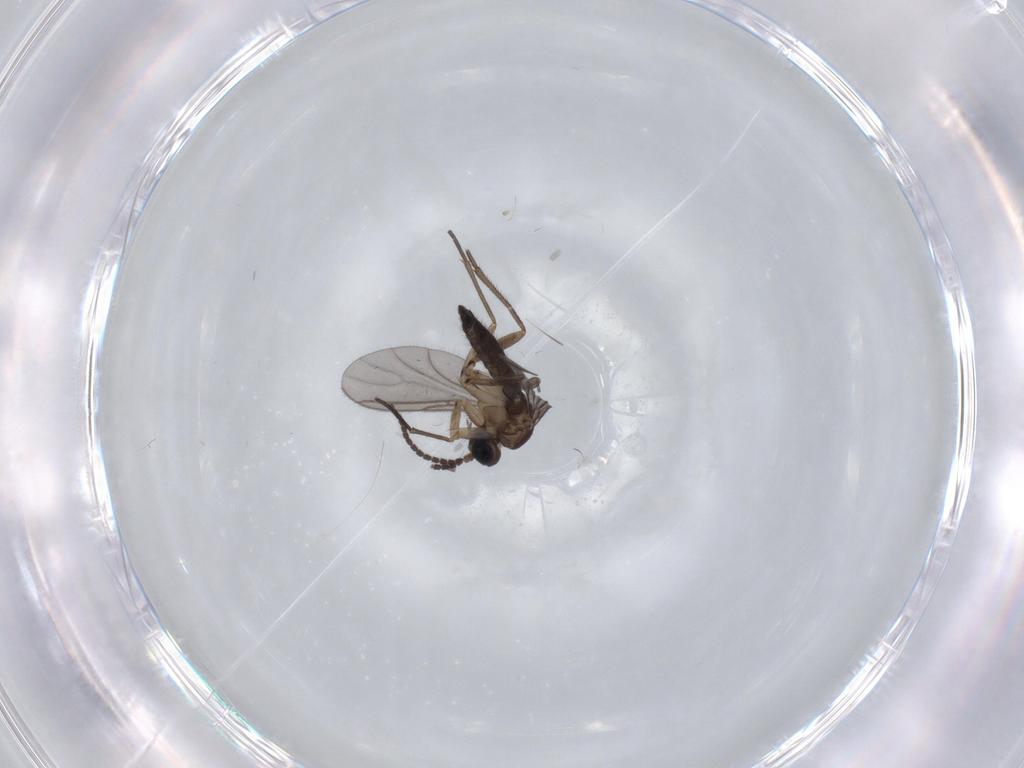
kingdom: Animalia
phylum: Arthropoda
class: Insecta
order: Diptera
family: Sciaridae
